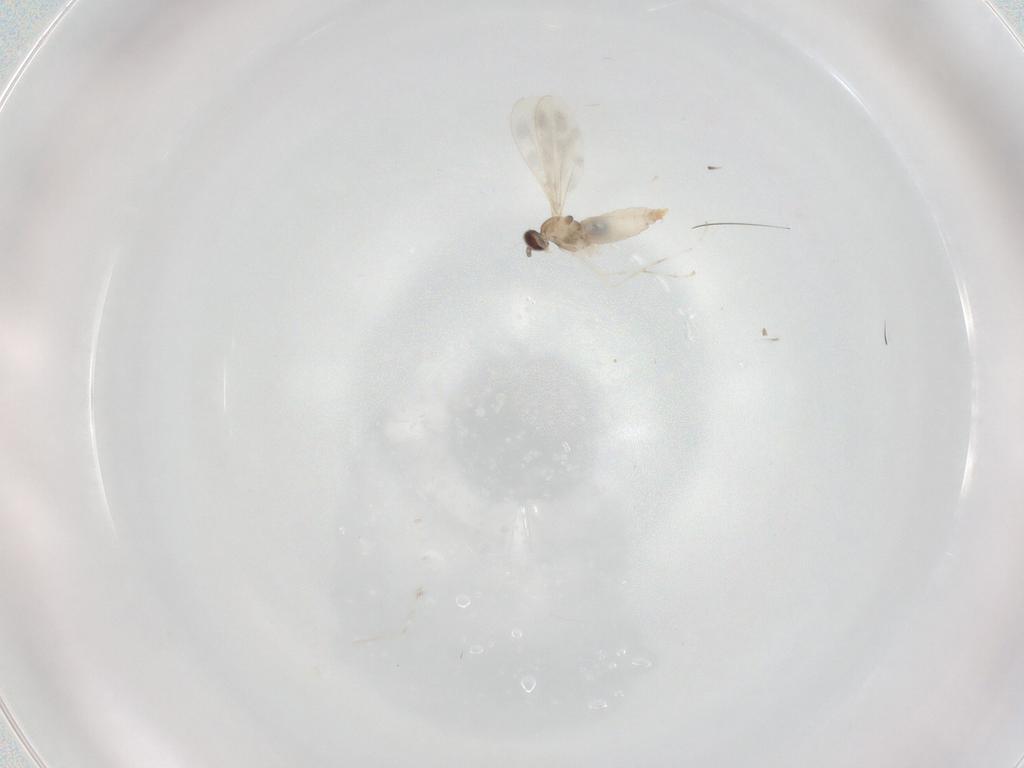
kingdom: Animalia
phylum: Arthropoda
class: Insecta
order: Diptera
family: Cecidomyiidae
